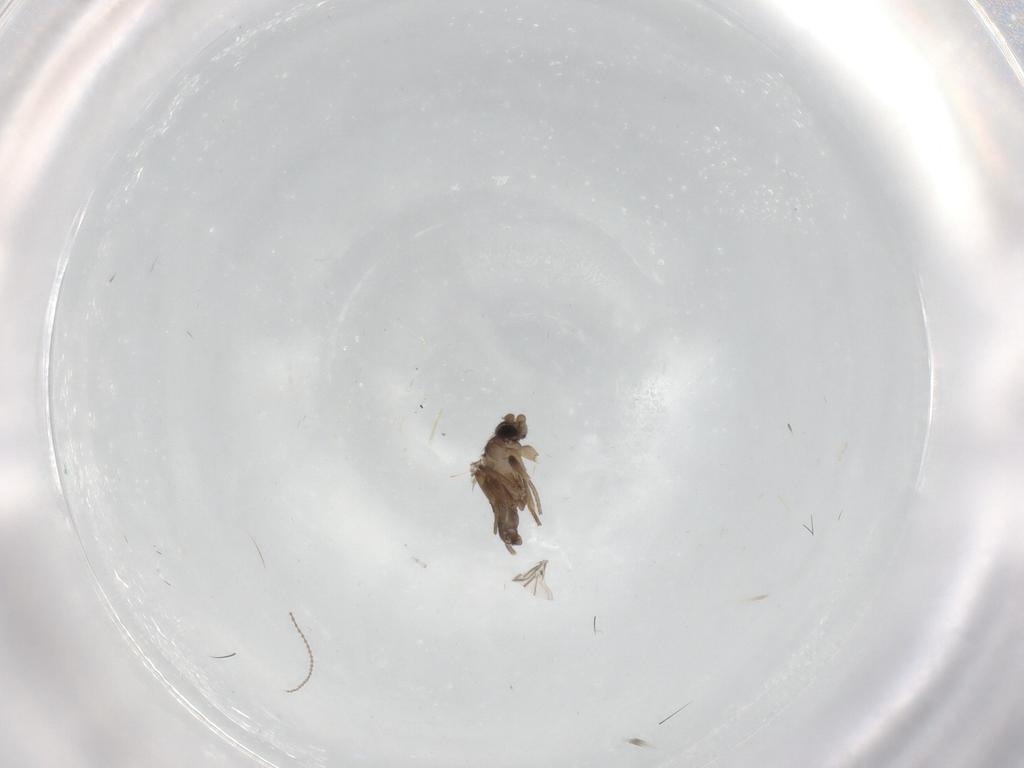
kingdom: Animalia
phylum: Arthropoda
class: Insecta
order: Diptera
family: Cecidomyiidae
